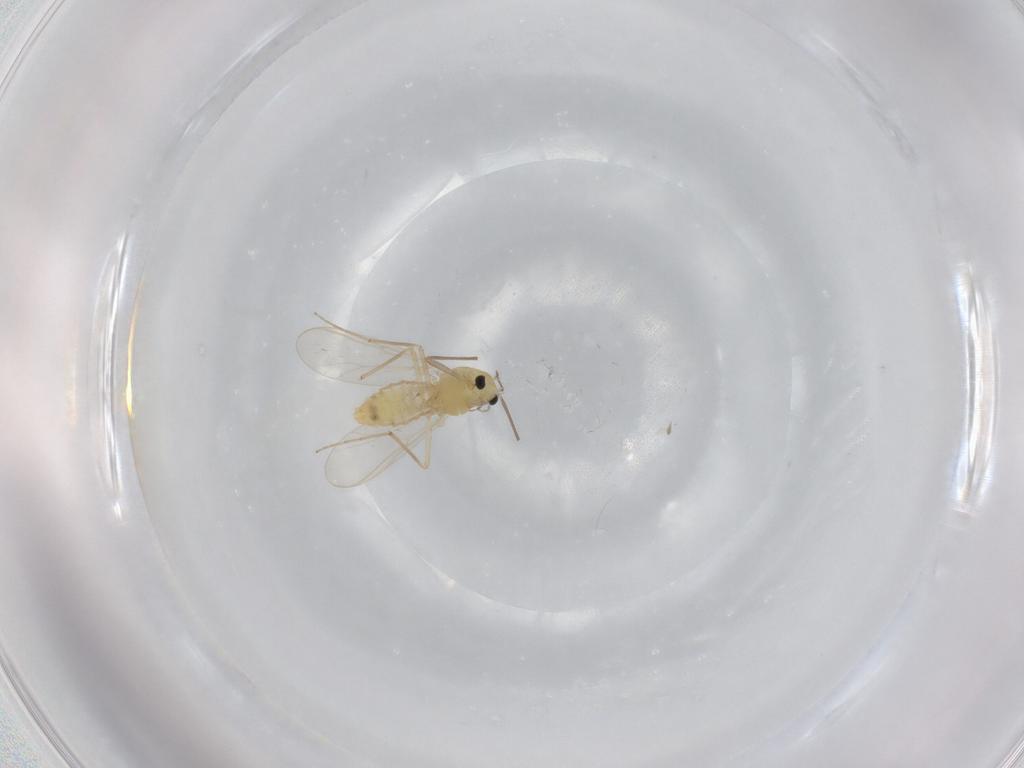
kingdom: Animalia
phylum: Arthropoda
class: Insecta
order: Diptera
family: Chironomidae
